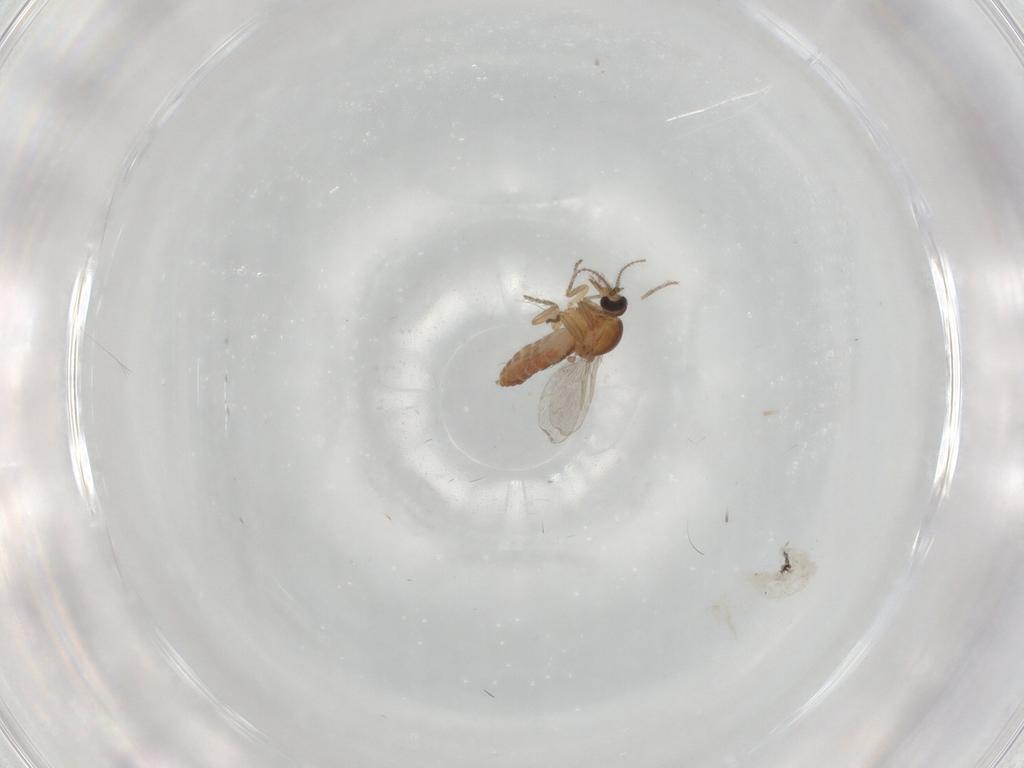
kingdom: Animalia
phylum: Arthropoda
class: Insecta
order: Diptera
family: Ceratopogonidae
